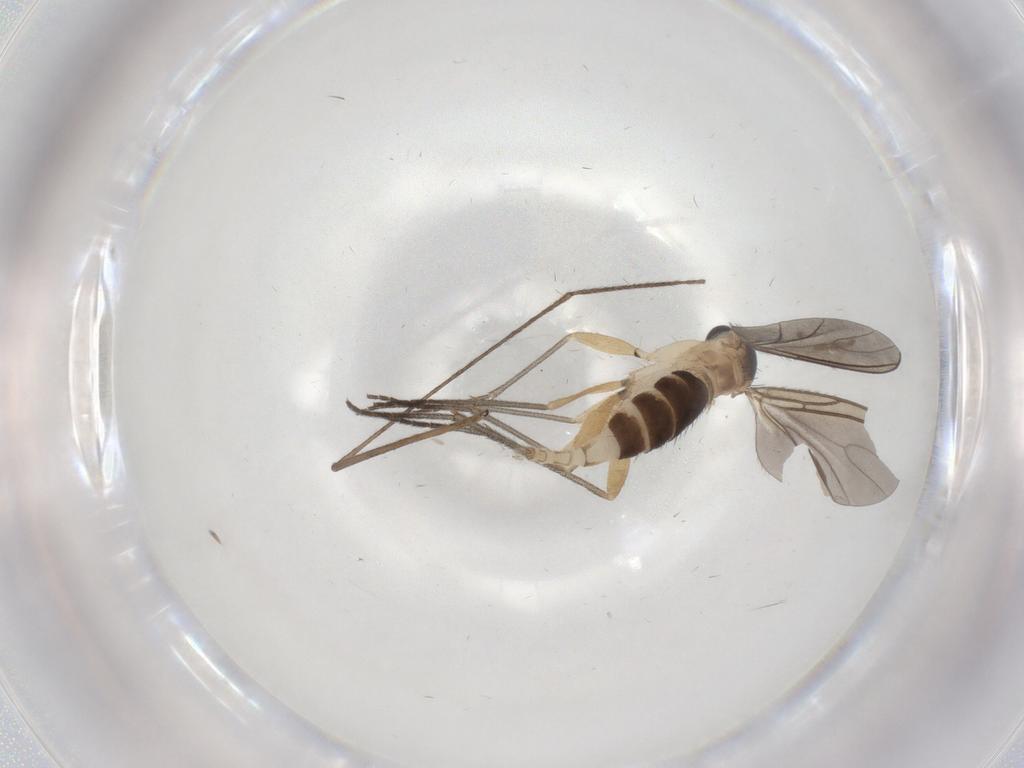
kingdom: Animalia
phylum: Arthropoda
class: Insecta
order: Diptera
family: Sciaridae
